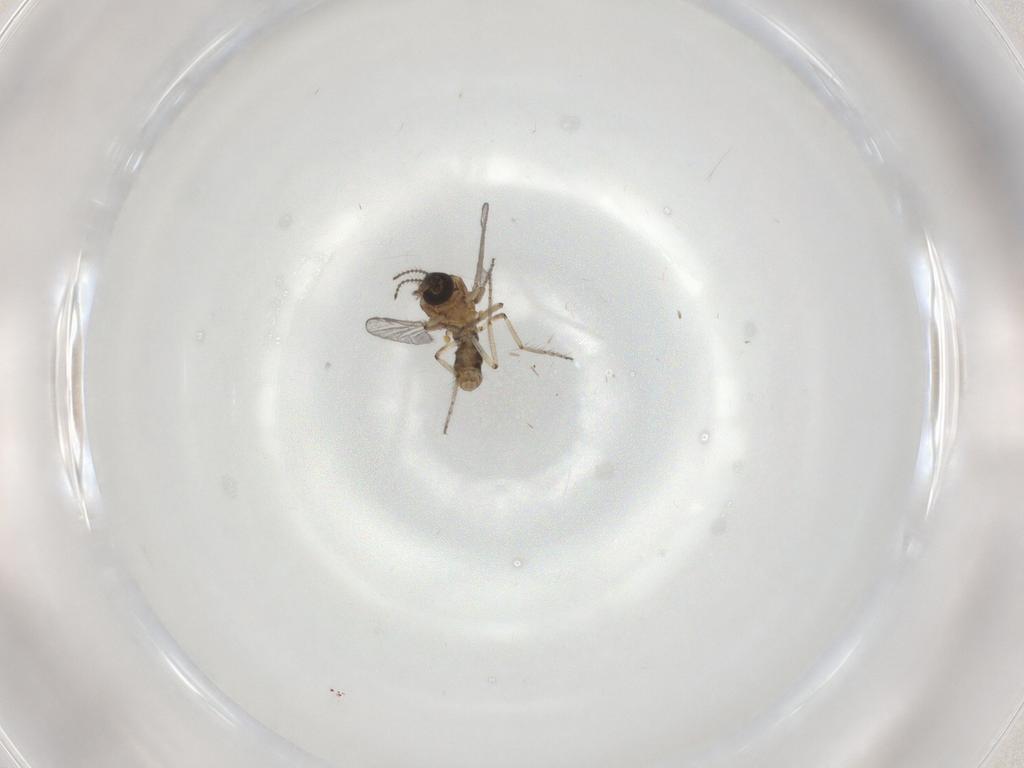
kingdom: Animalia
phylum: Arthropoda
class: Insecta
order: Diptera
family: Ceratopogonidae
